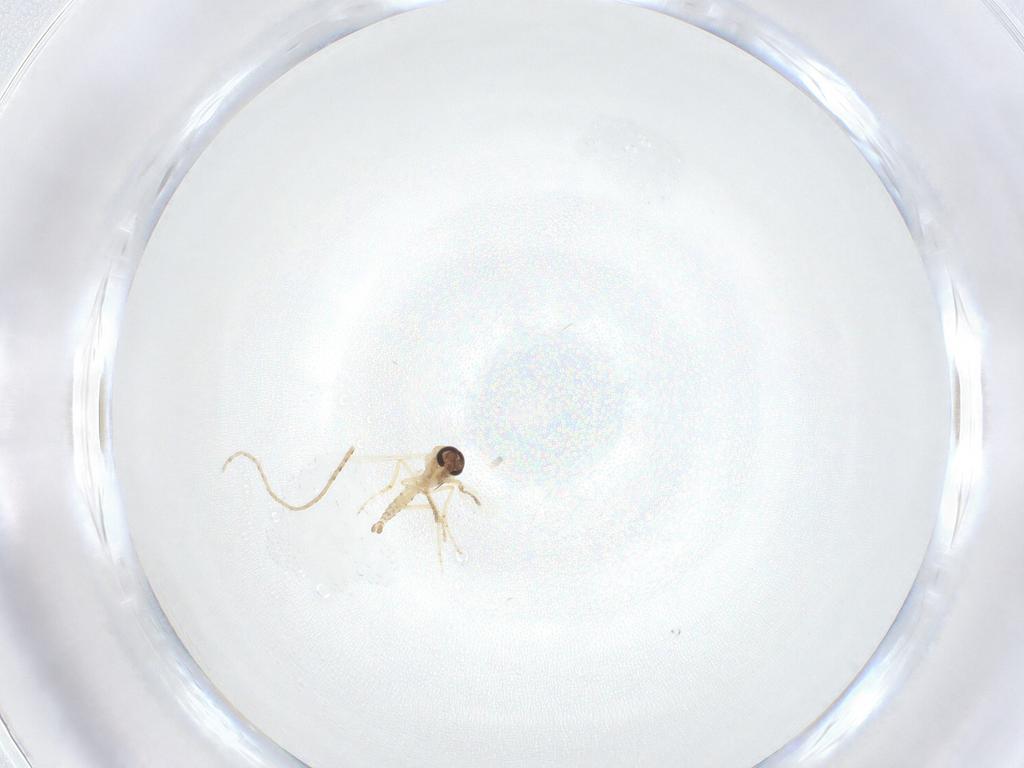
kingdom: Animalia
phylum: Arthropoda
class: Insecta
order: Diptera
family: Ceratopogonidae
